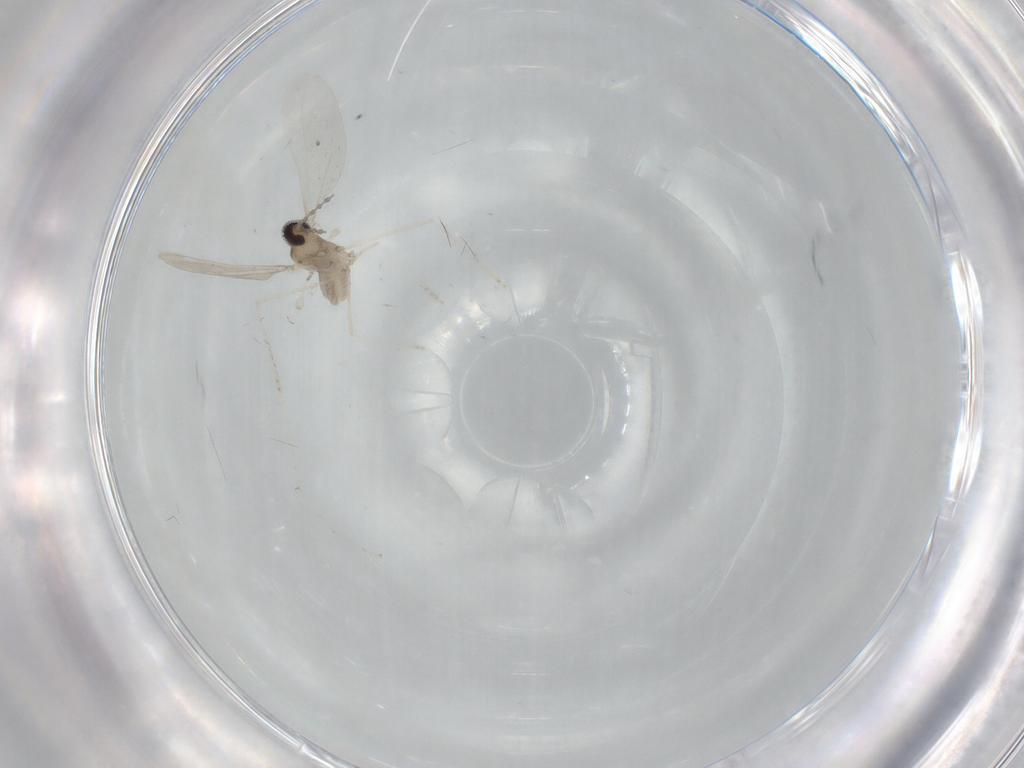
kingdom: Animalia
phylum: Arthropoda
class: Insecta
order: Diptera
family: Cecidomyiidae
